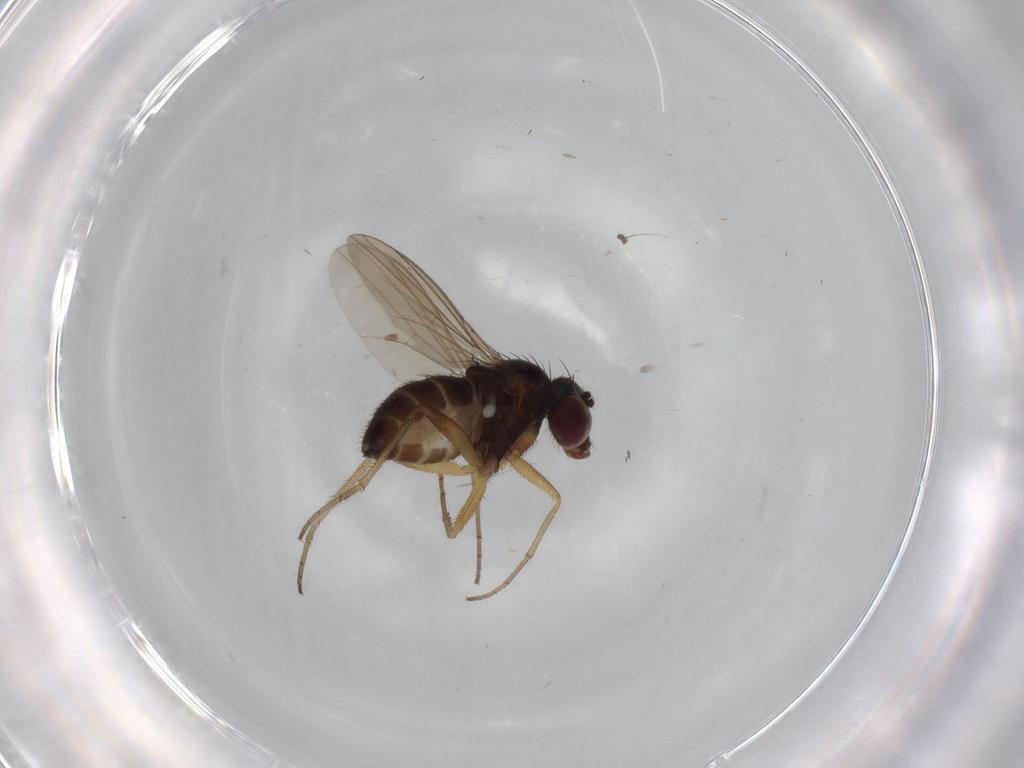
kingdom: Animalia
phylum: Arthropoda
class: Insecta
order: Diptera
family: Dolichopodidae
